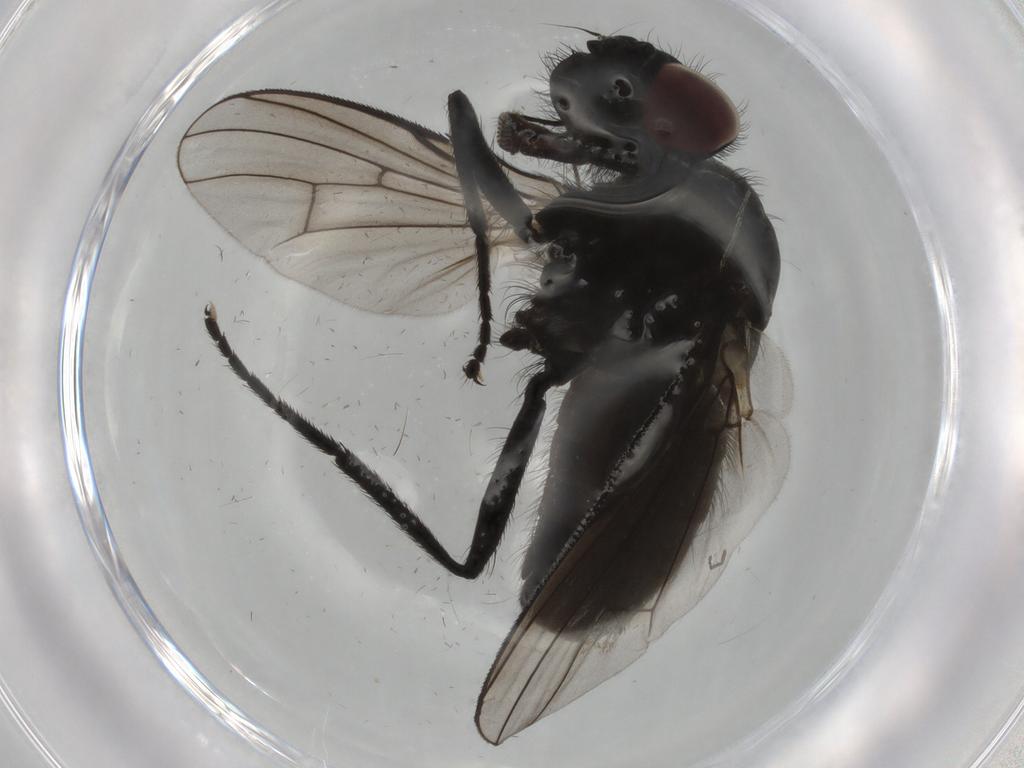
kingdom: Animalia
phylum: Arthropoda
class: Insecta
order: Diptera
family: Muscidae
